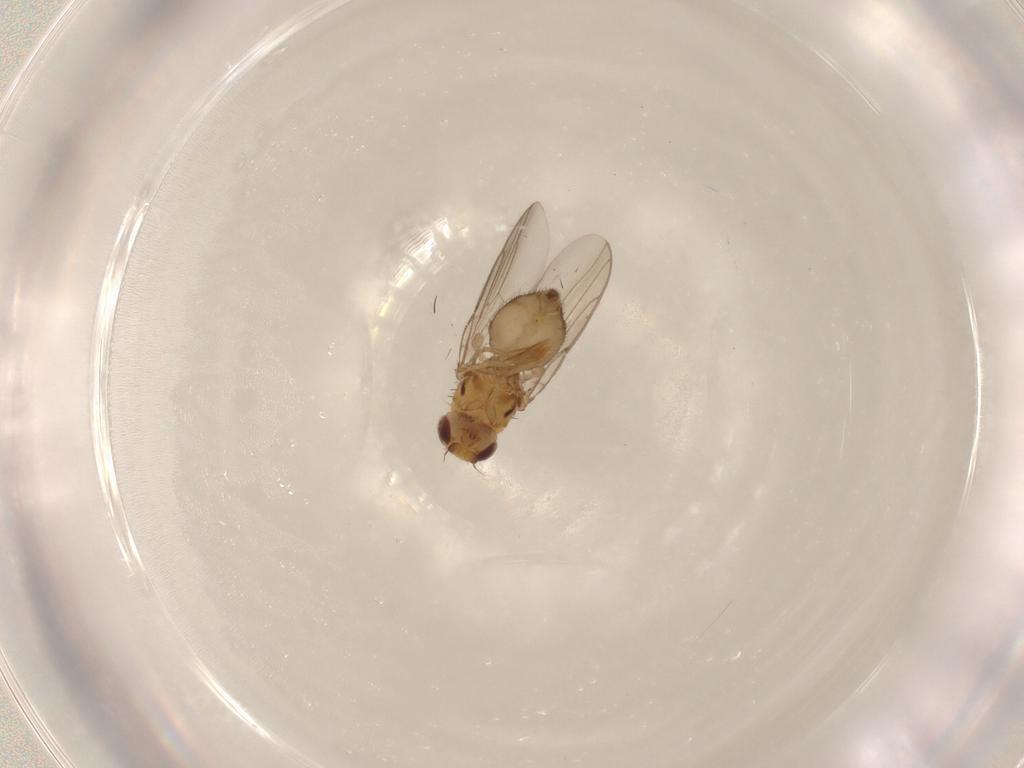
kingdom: Animalia
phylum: Arthropoda
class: Insecta
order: Diptera
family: Chloropidae
